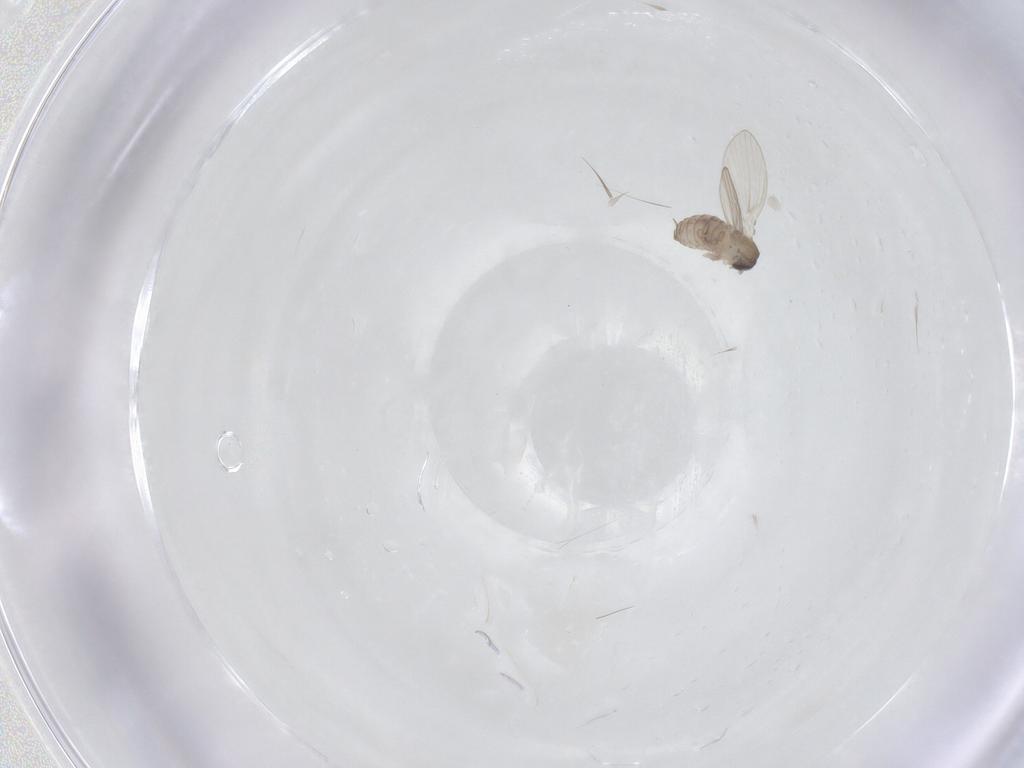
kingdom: Animalia
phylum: Arthropoda
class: Insecta
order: Diptera
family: Psychodidae
